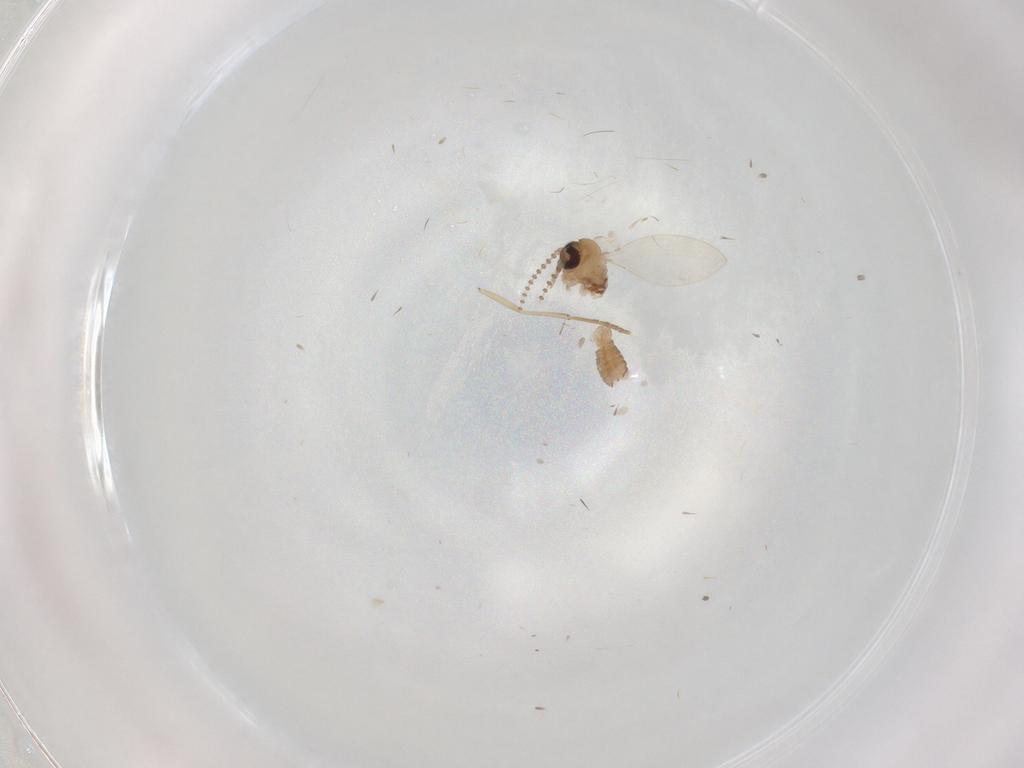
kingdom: Animalia
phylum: Arthropoda
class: Insecta
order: Diptera
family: Psychodidae
